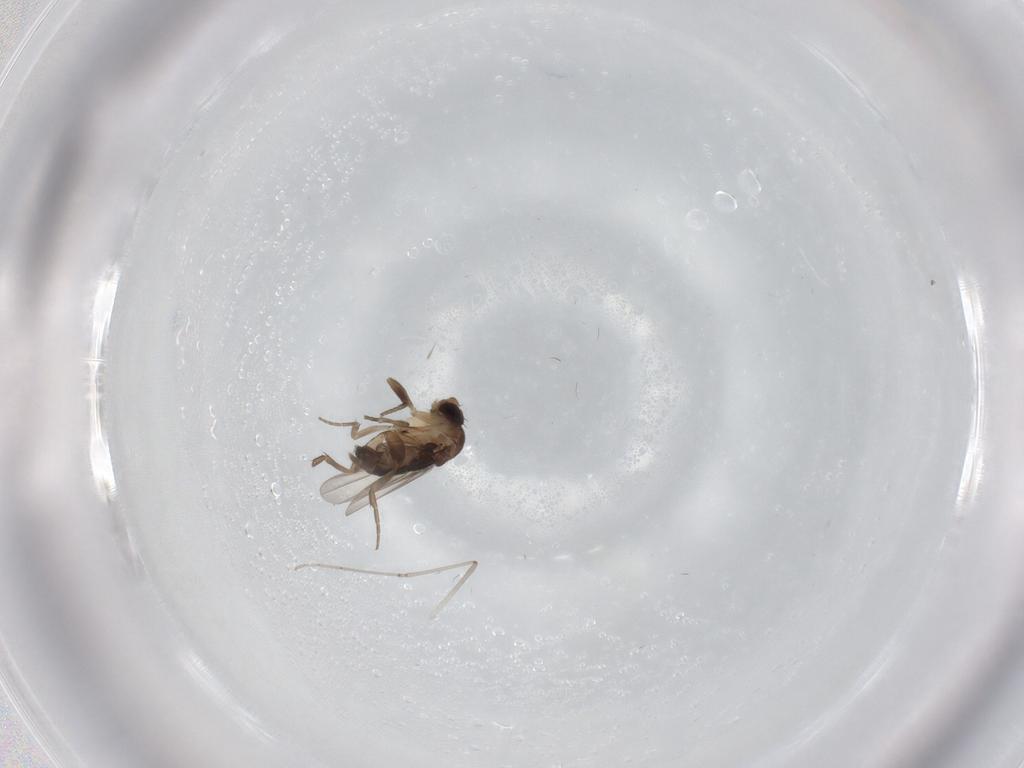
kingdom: Animalia
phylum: Arthropoda
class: Insecta
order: Diptera
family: Cecidomyiidae
